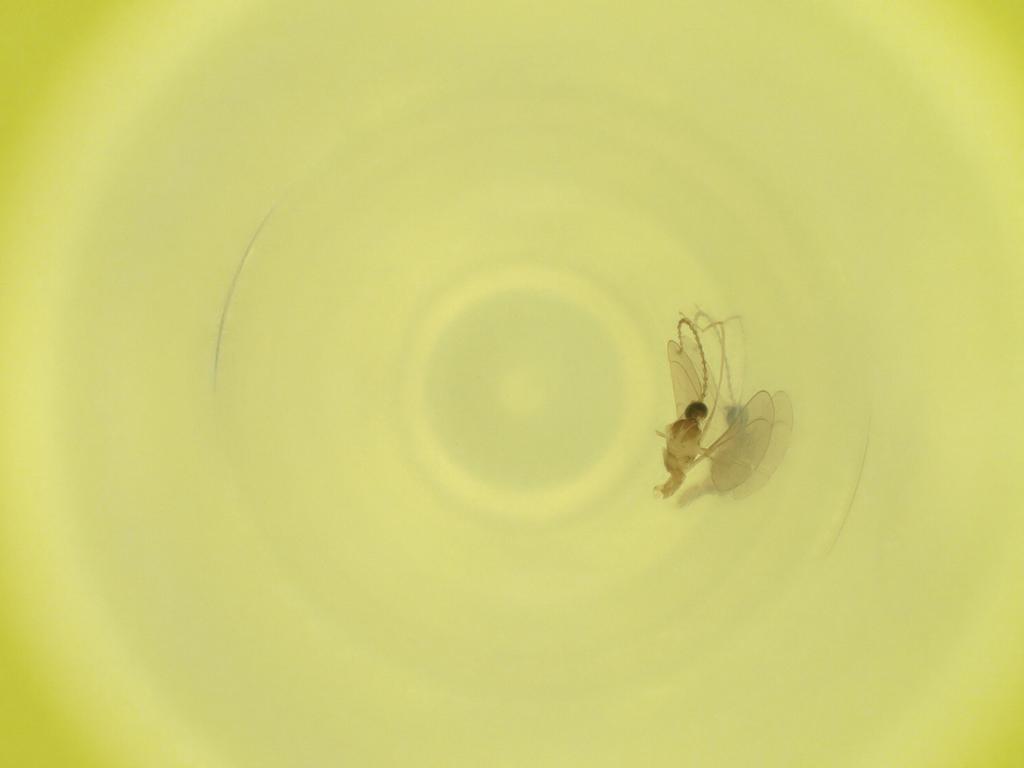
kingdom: Animalia
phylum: Arthropoda
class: Insecta
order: Diptera
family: Cecidomyiidae
